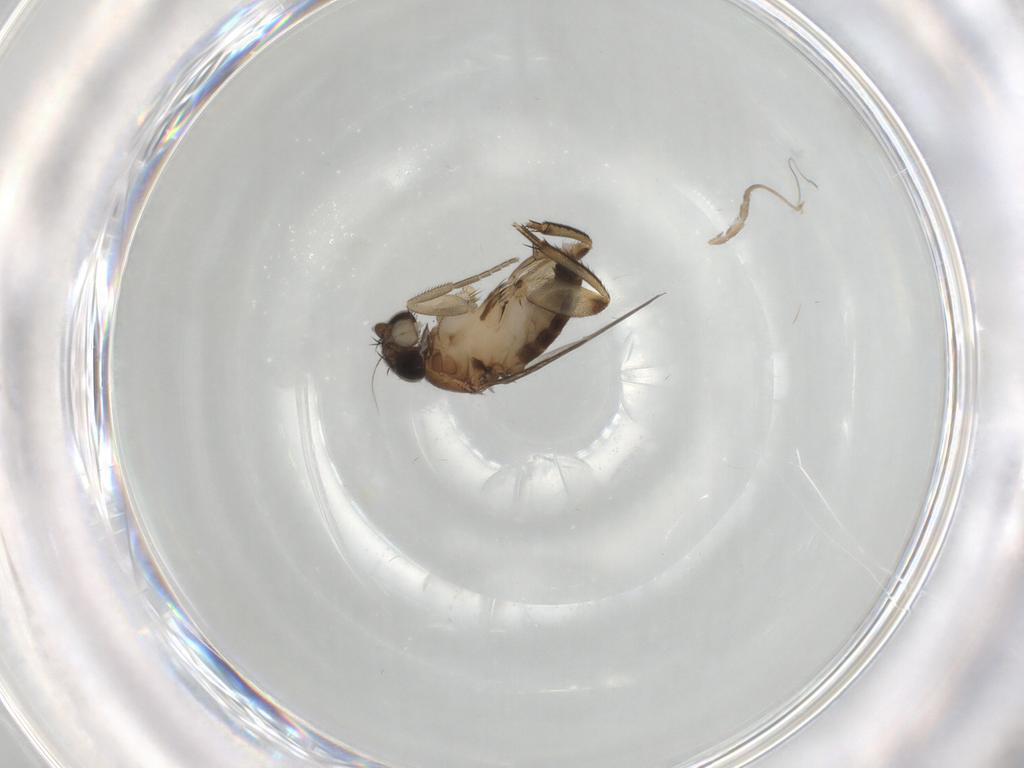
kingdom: Animalia
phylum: Arthropoda
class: Insecta
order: Diptera
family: Phoridae
